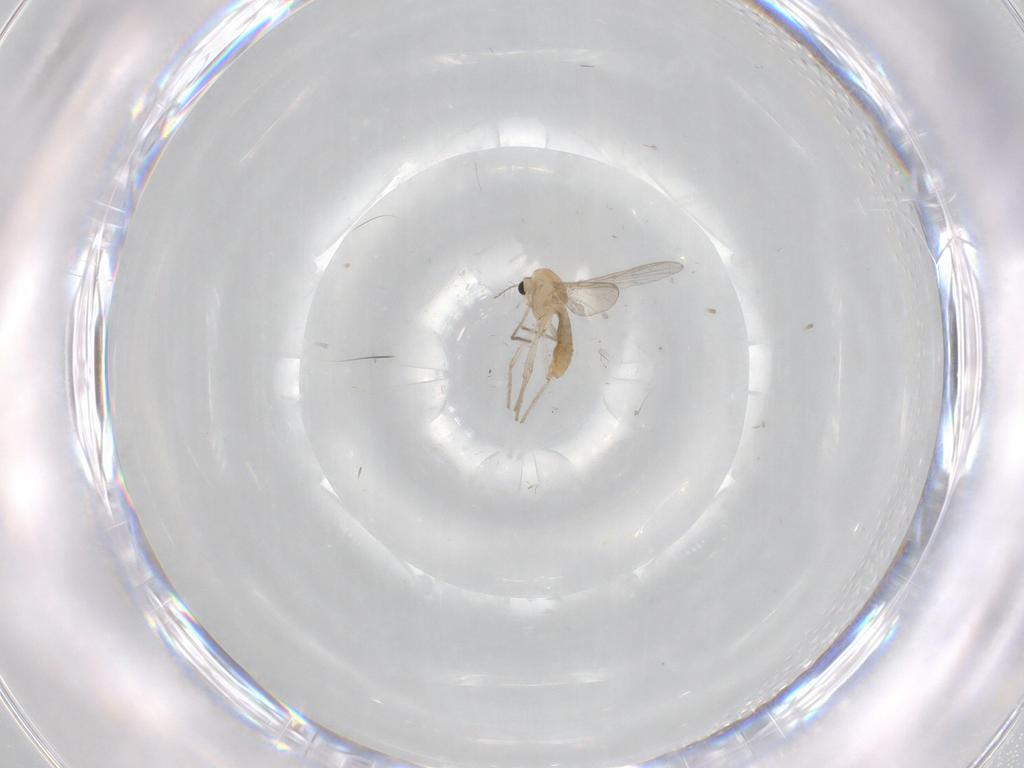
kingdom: Animalia
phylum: Arthropoda
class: Insecta
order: Diptera
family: Chironomidae
